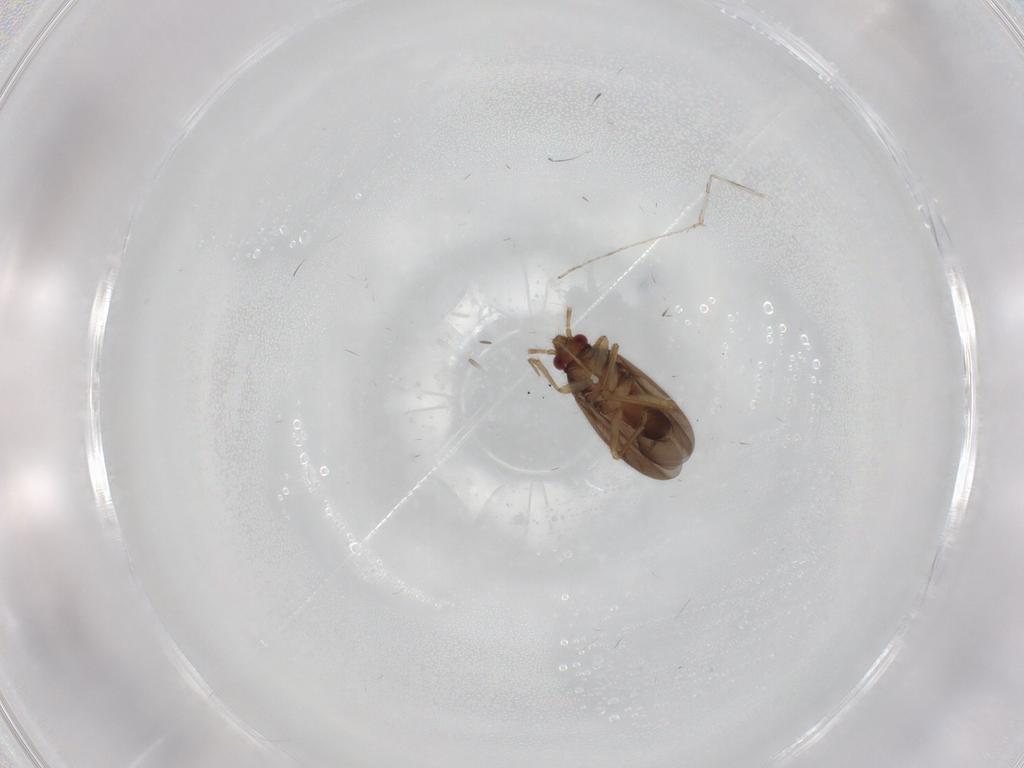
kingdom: Animalia
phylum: Arthropoda
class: Insecta
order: Hemiptera
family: Ceratocombidae
